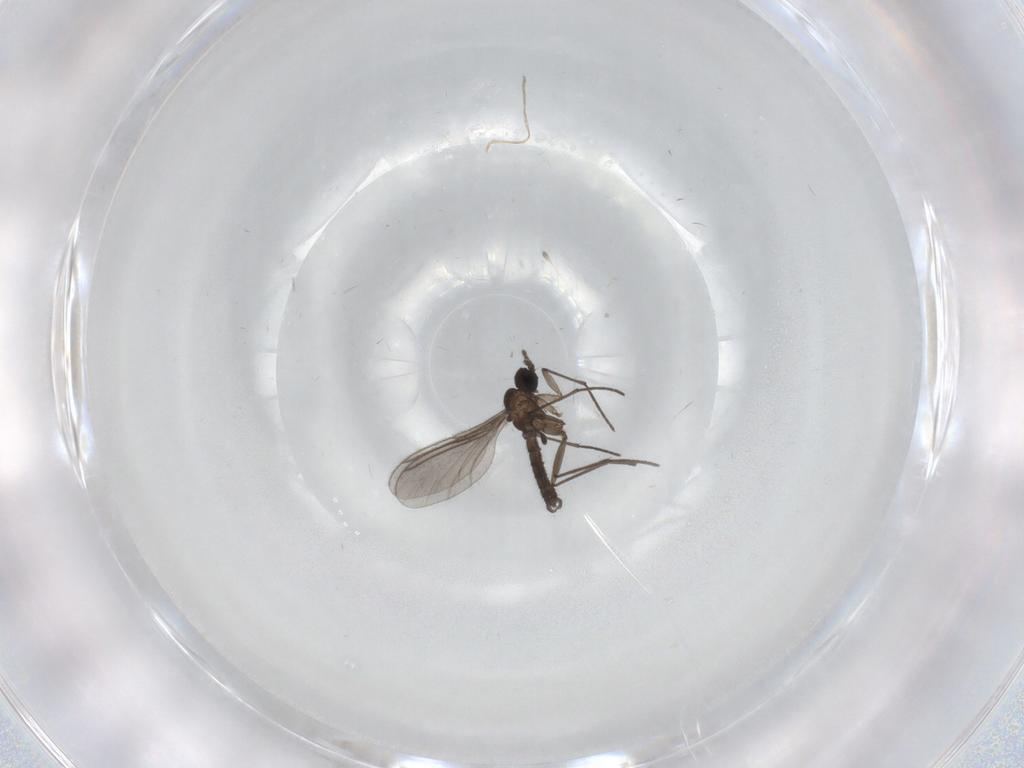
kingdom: Animalia
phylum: Arthropoda
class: Insecta
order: Diptera
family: Sciaridae
